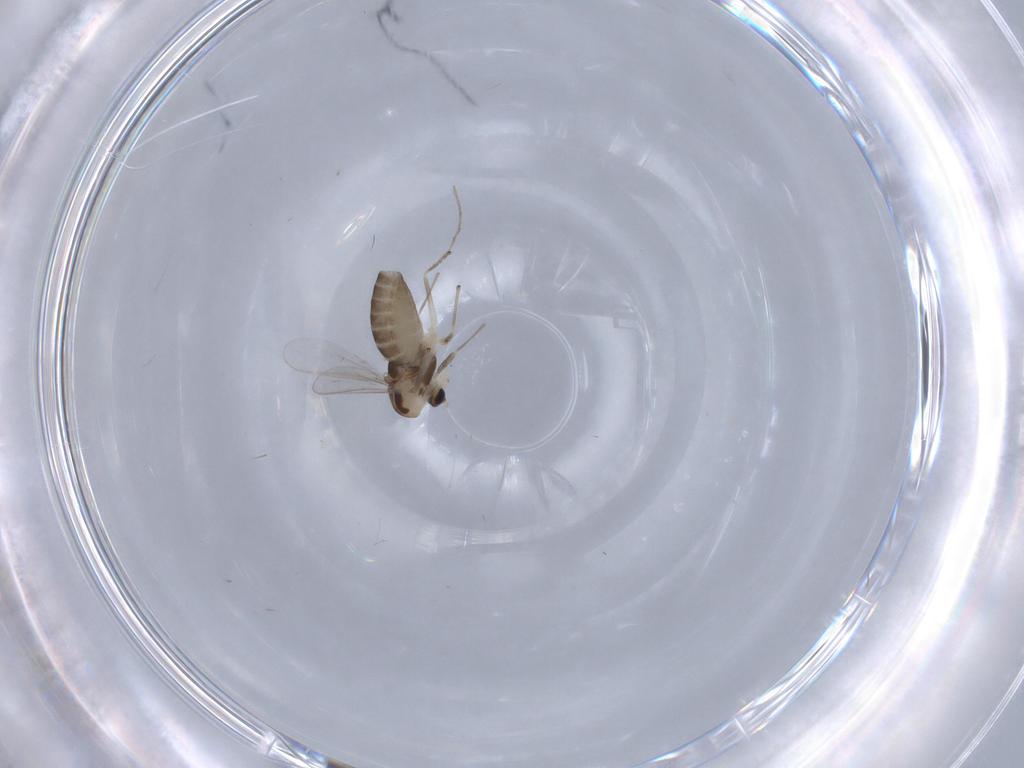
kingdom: Animalia
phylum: Arthropoda
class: Insecta
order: Diptera
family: Chironomidae
